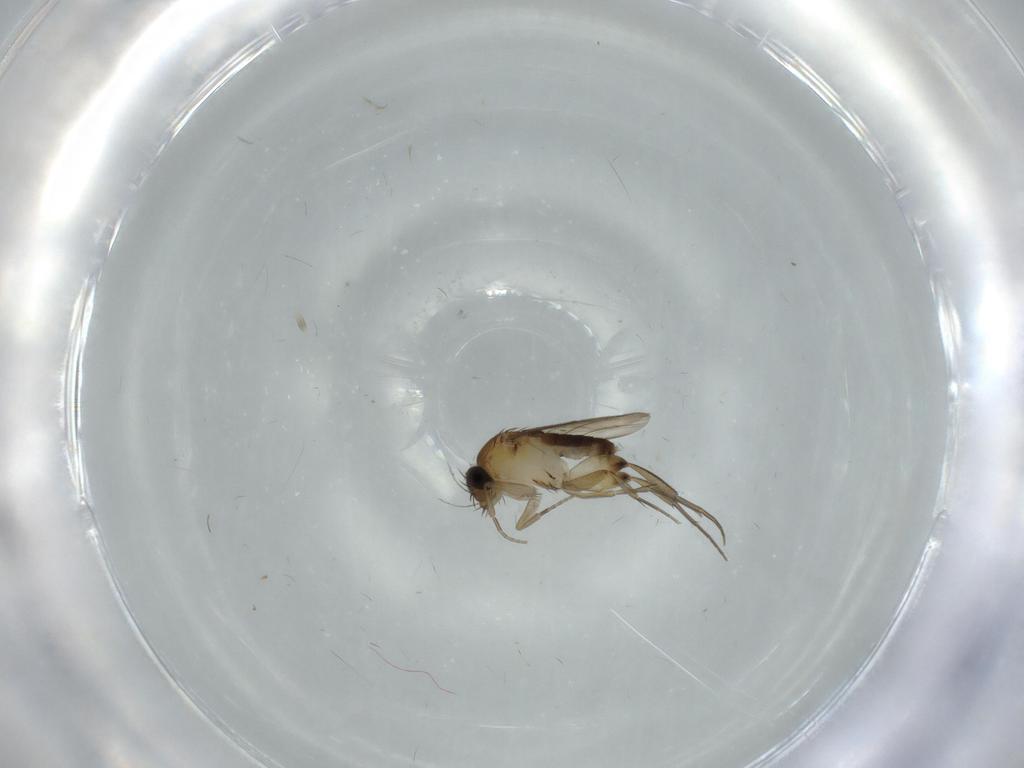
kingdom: Animalia
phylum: Arthropoda
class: Insecta
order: Diptera
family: Phoridae
